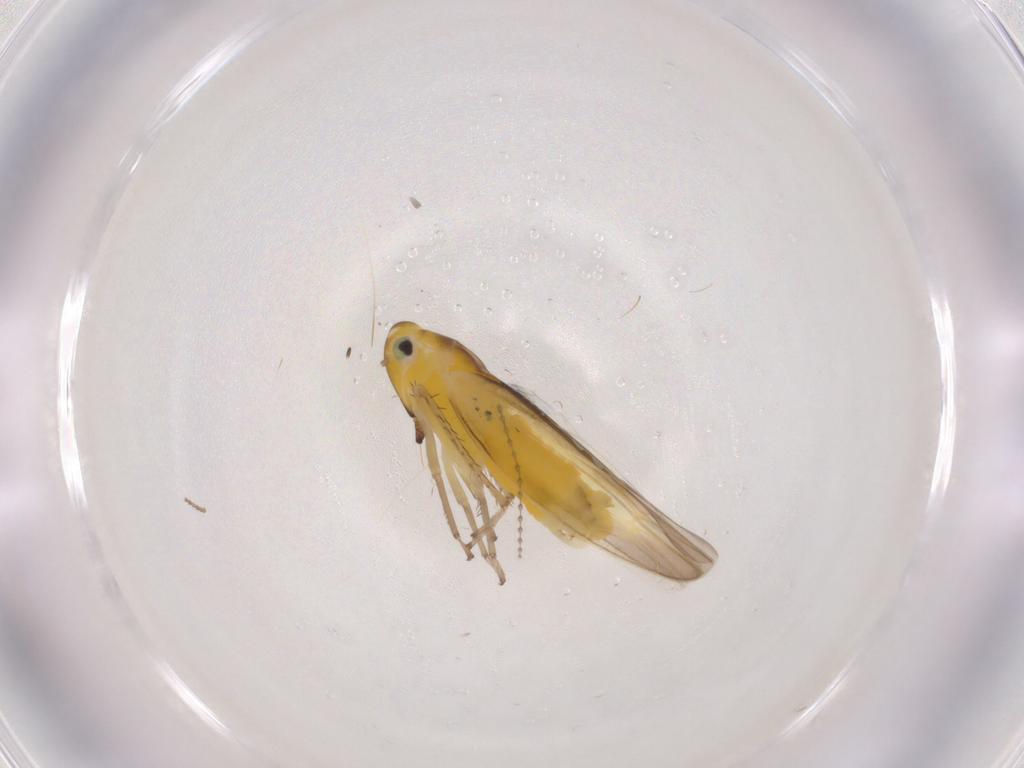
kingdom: Animalia
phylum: Arthropoda
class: Insecta
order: Hemiptera
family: Cicadellidae
